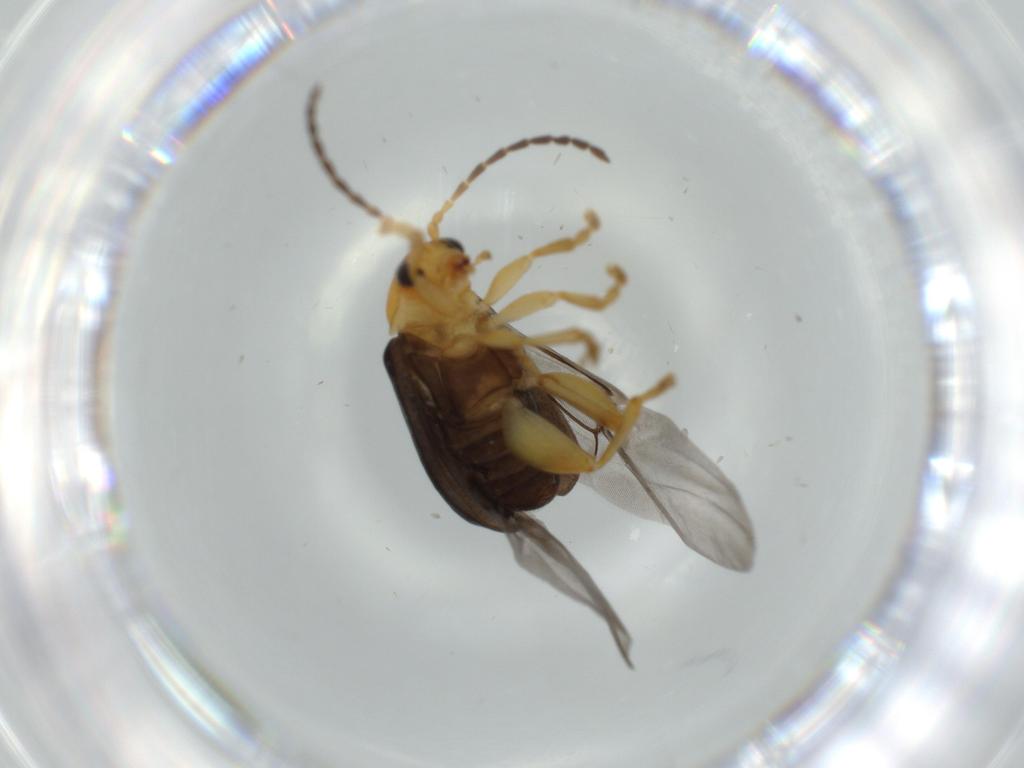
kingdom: Animalia
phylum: Arthropoda
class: Insecta
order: Coleoptera
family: Chrysomelidae
